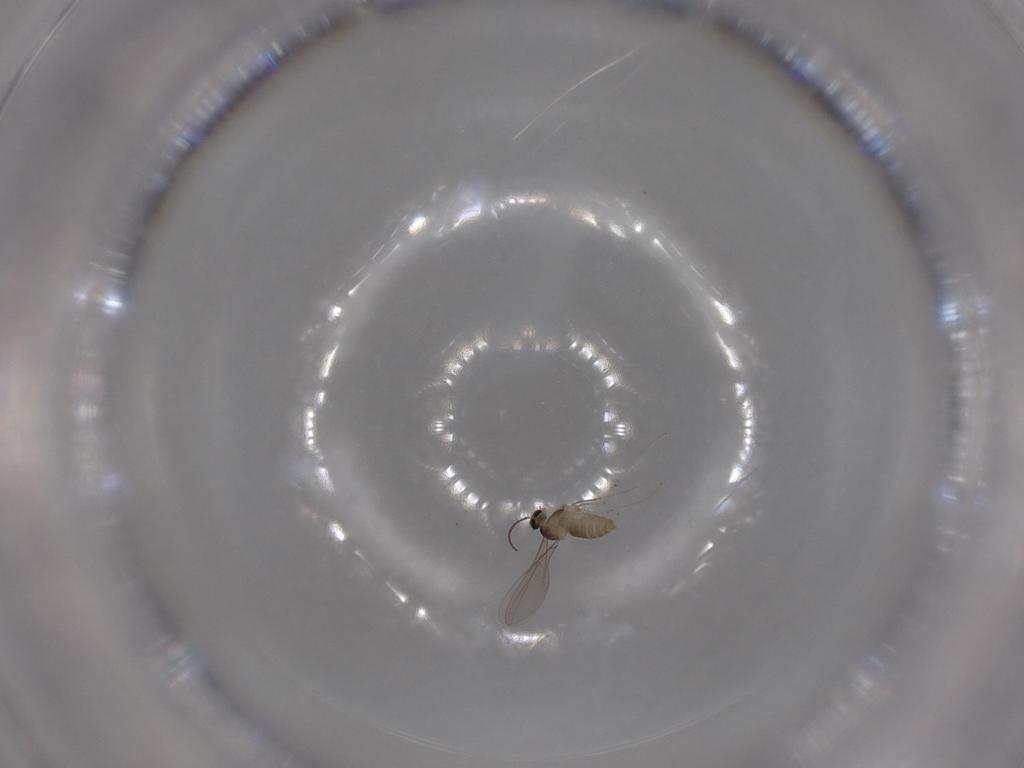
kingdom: Animalia
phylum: Arthropoda
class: Insecta
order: Diptera
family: Cecidomyiidae
